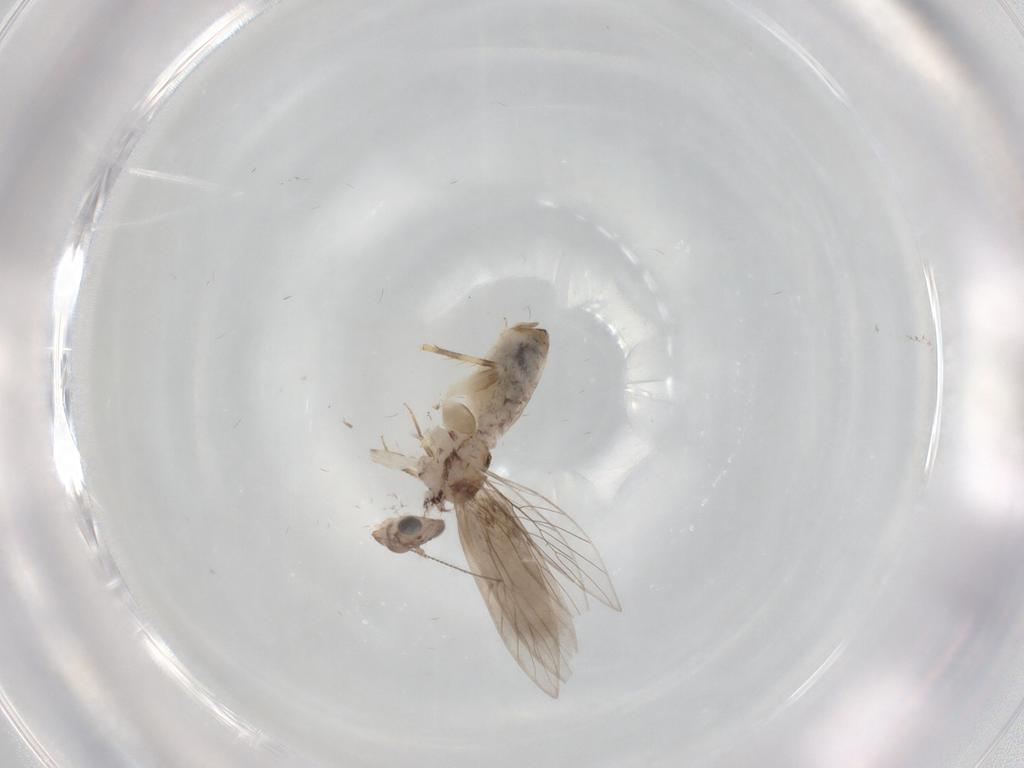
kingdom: Animalia
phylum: Arthropoda
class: Insecta
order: Psocodea
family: Lepidopsocidae
